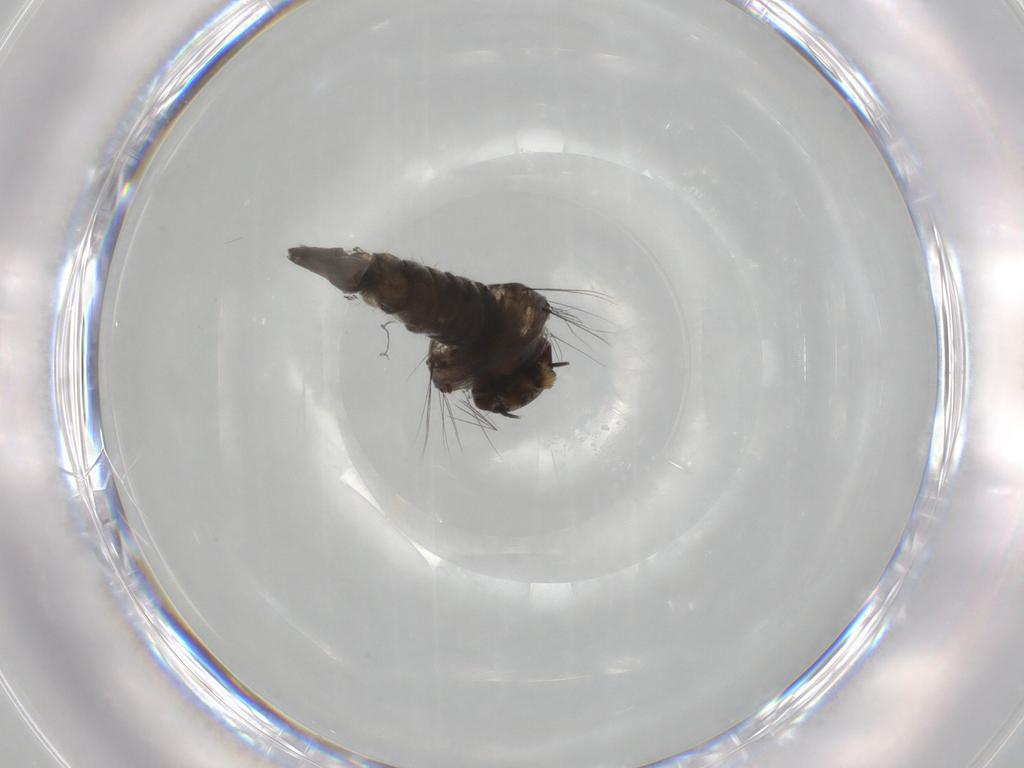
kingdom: Animalia
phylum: Arthropoda
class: Insecta
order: Diptera
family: Culicidae
